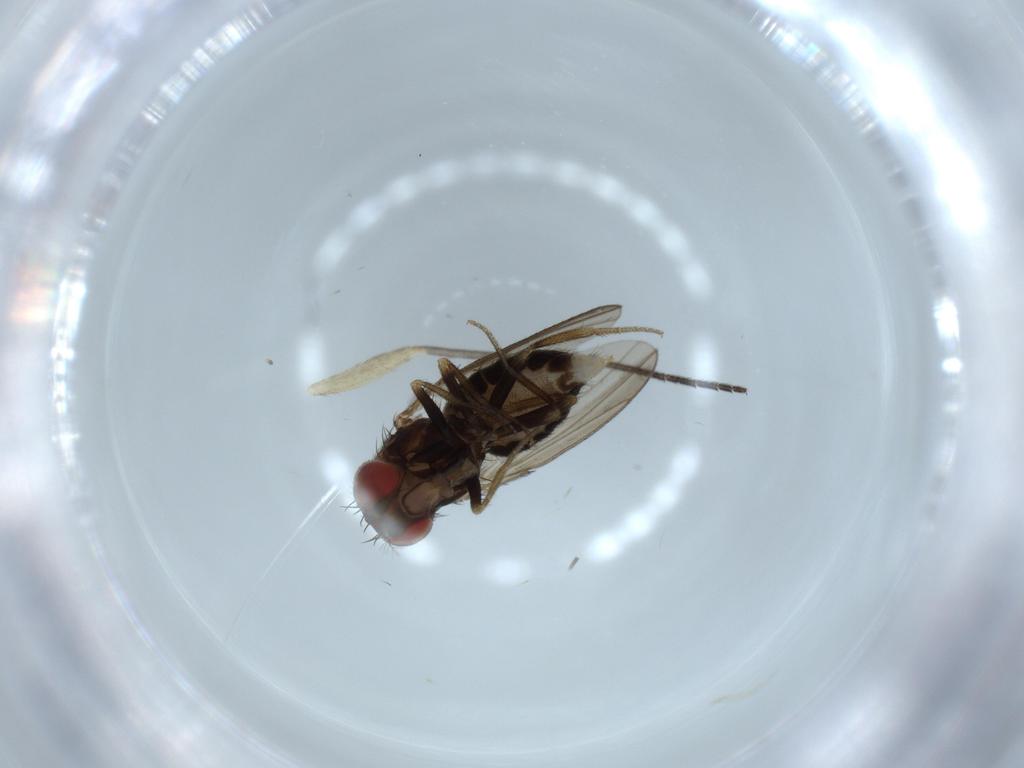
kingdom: Animalia
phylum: Arthropoda
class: Insecta
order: Diptera
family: Drosophilidae
